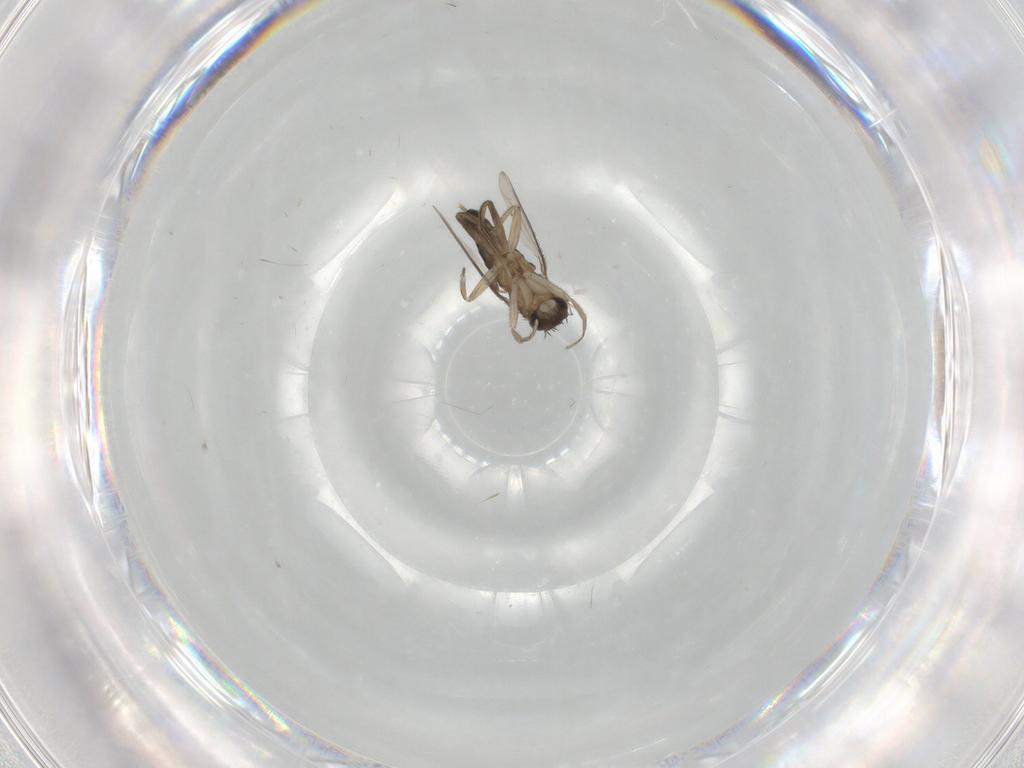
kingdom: Animalia
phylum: Arthropoda
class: Insecta
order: Diptera
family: Phoridae
